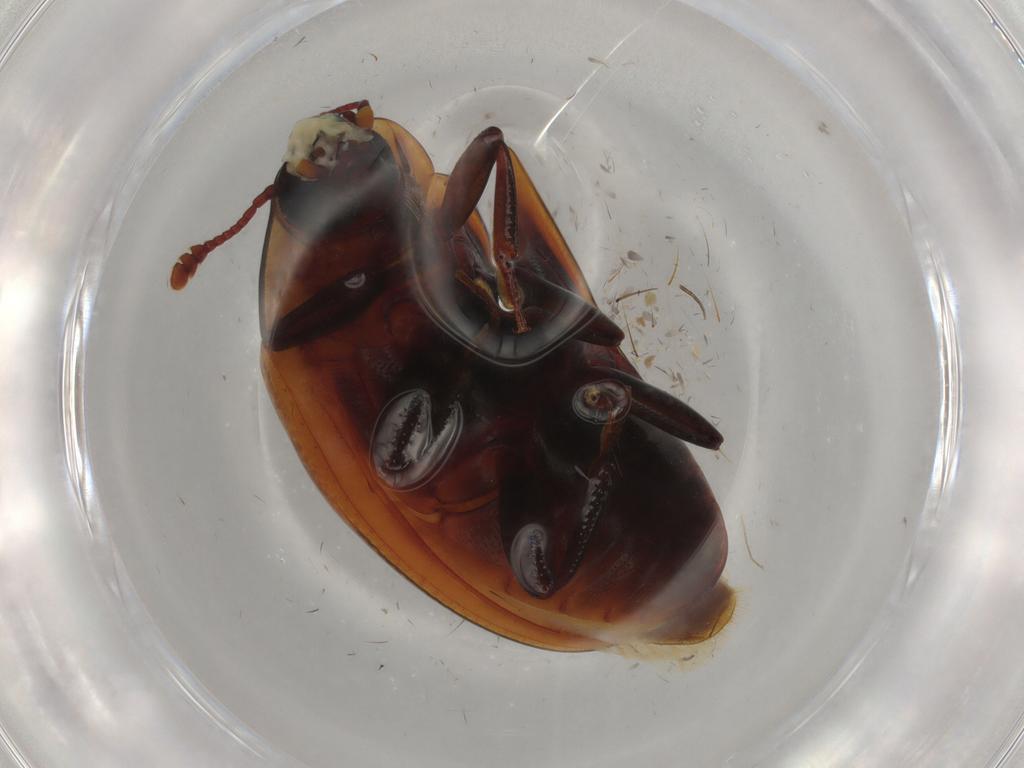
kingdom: Animalia
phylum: Arthropoda
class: Insecta
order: Coleoptera
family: Zopheridae
